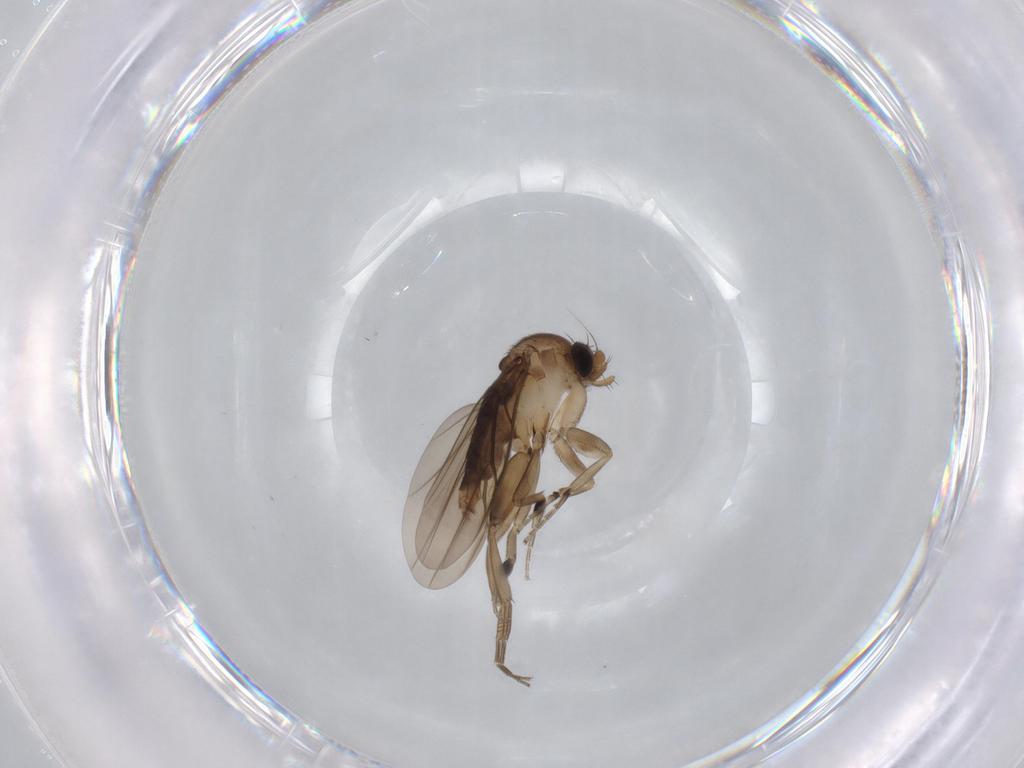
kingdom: Animalia
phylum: Arthropoda
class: Insecta
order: Diptera
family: Phoridae
